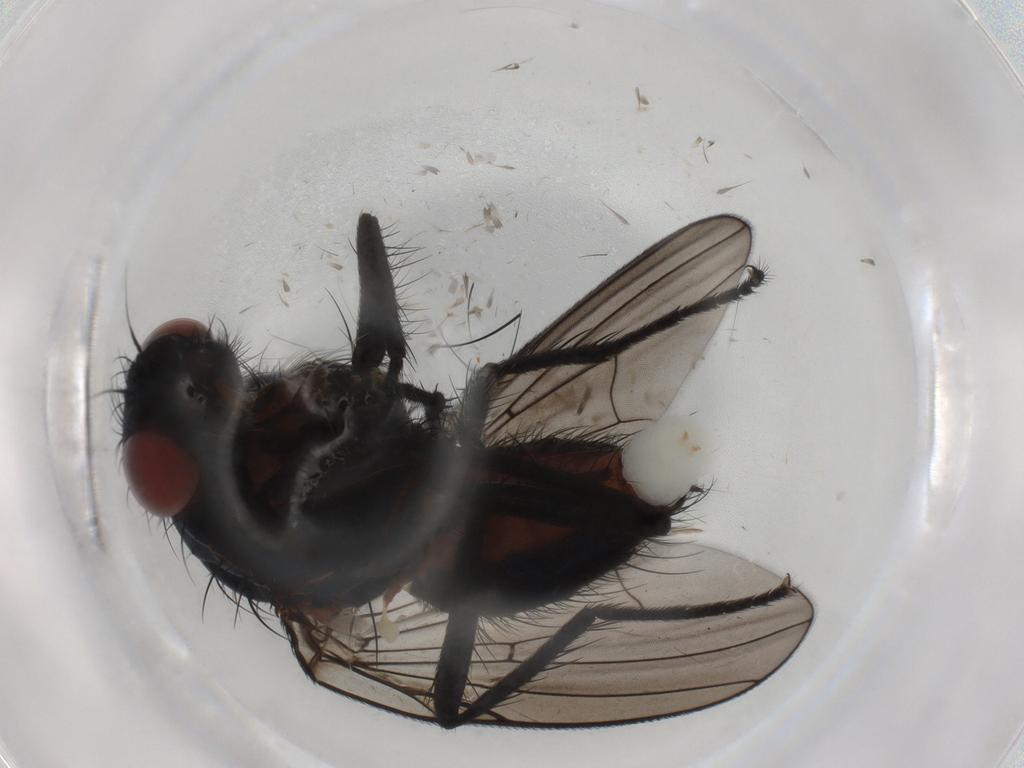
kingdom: Animalia
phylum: Arthropoda
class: Insecta
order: Diptera
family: Anthomyiidae
